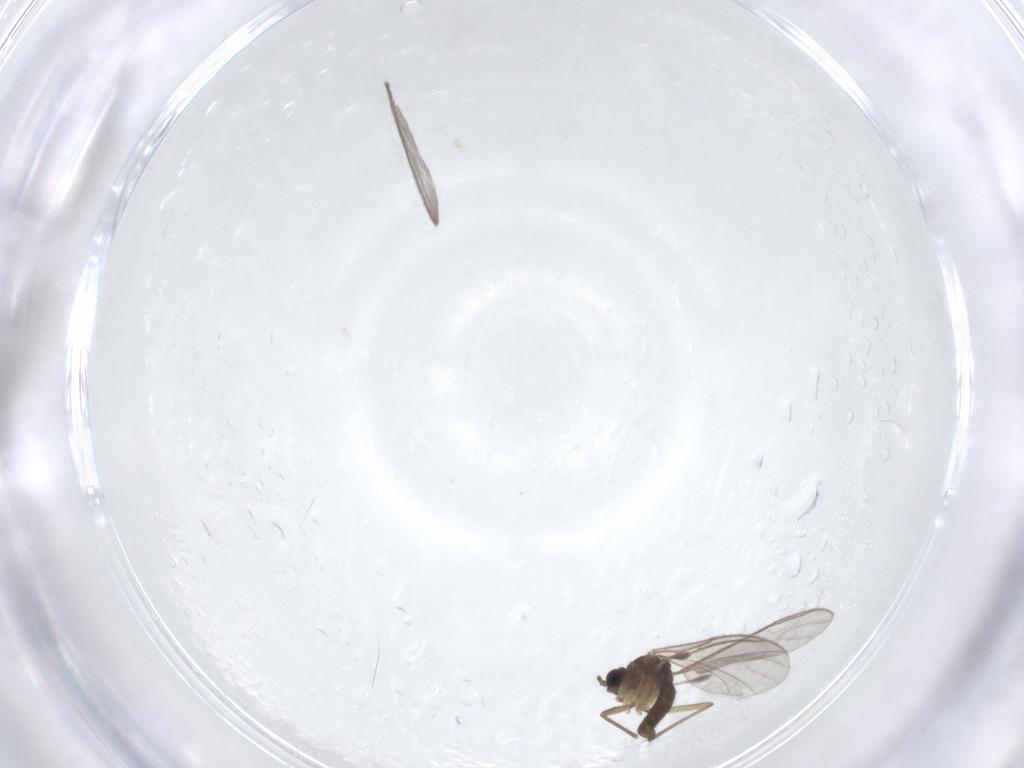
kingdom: Animalia
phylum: Arthropoda
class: Insecta
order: Diptera
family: Sciaridae
